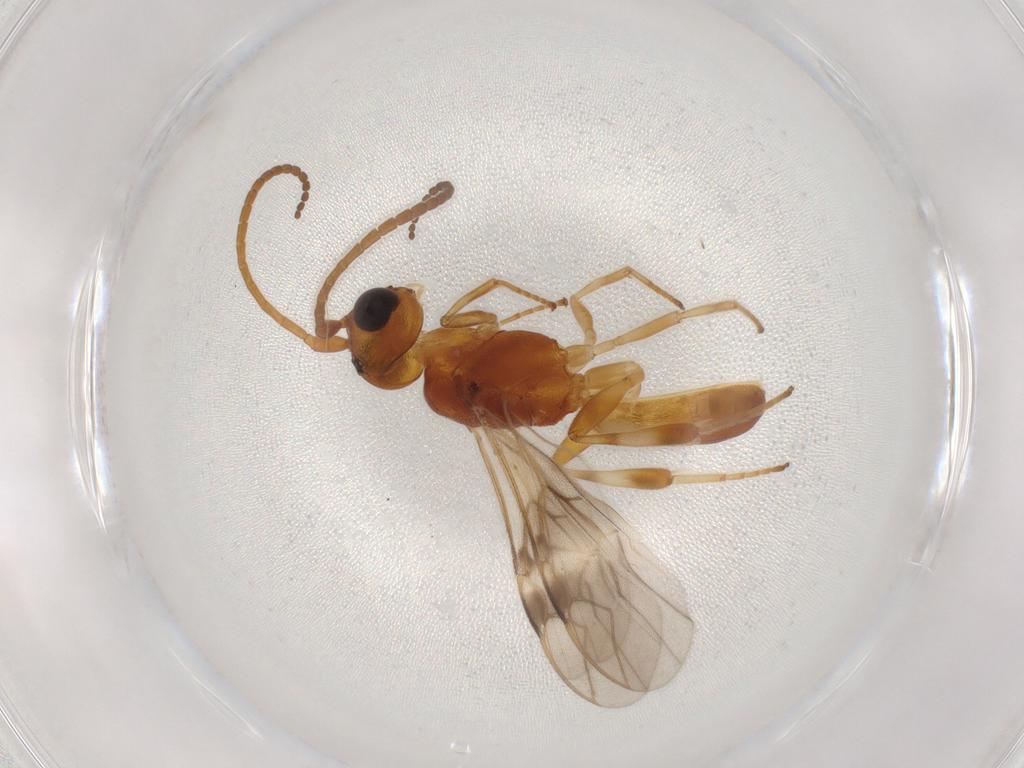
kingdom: Animalia
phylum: Arthropoda
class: Insecta
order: Hymenoptera
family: Braconidae
